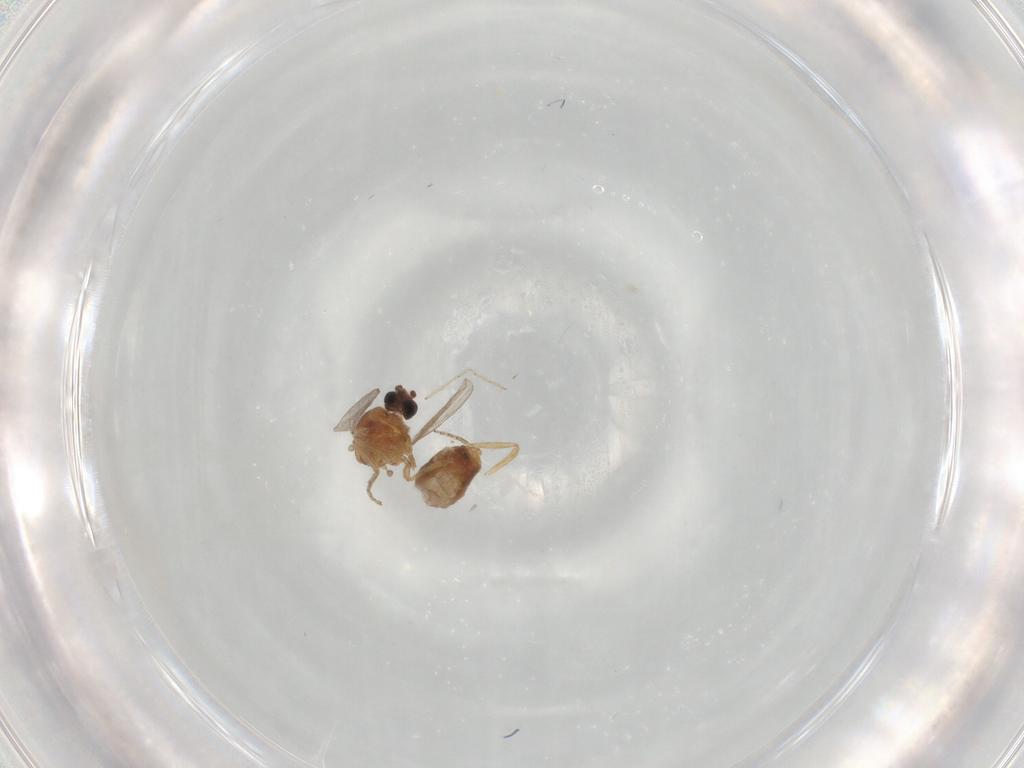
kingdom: Animalia
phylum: Arthropoda
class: Insecta
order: Diptera
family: Ceratopogonidae
